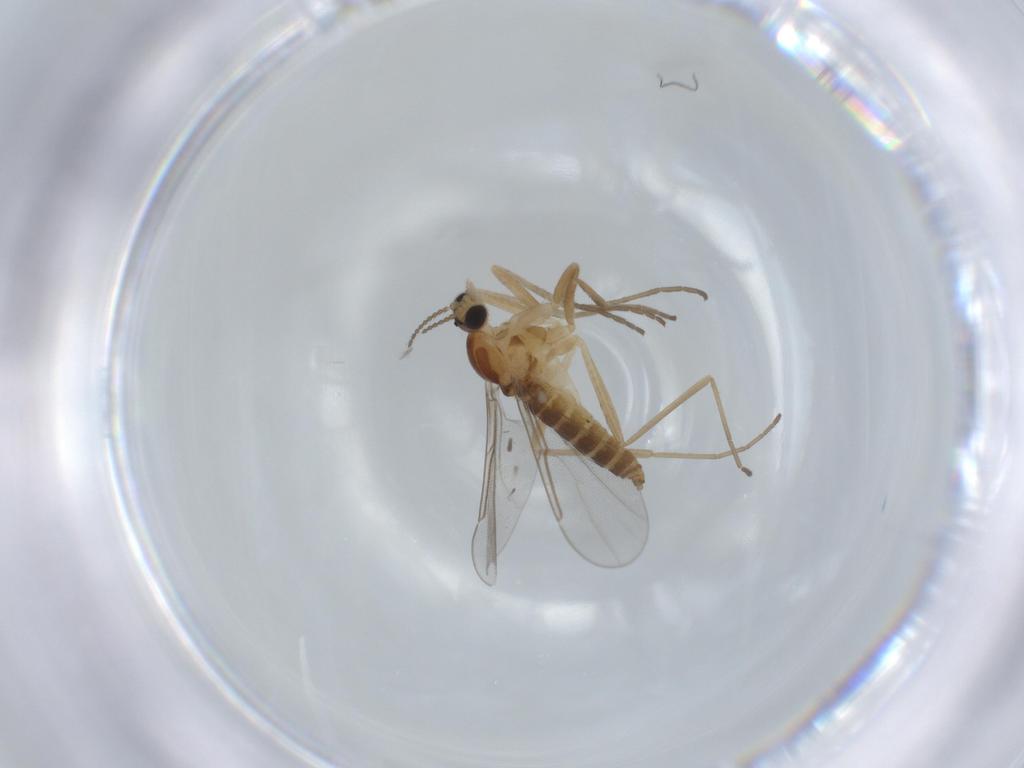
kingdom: Animalia
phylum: Arthropoda
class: Insecta
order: Diptera
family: Cecidomyiidae
